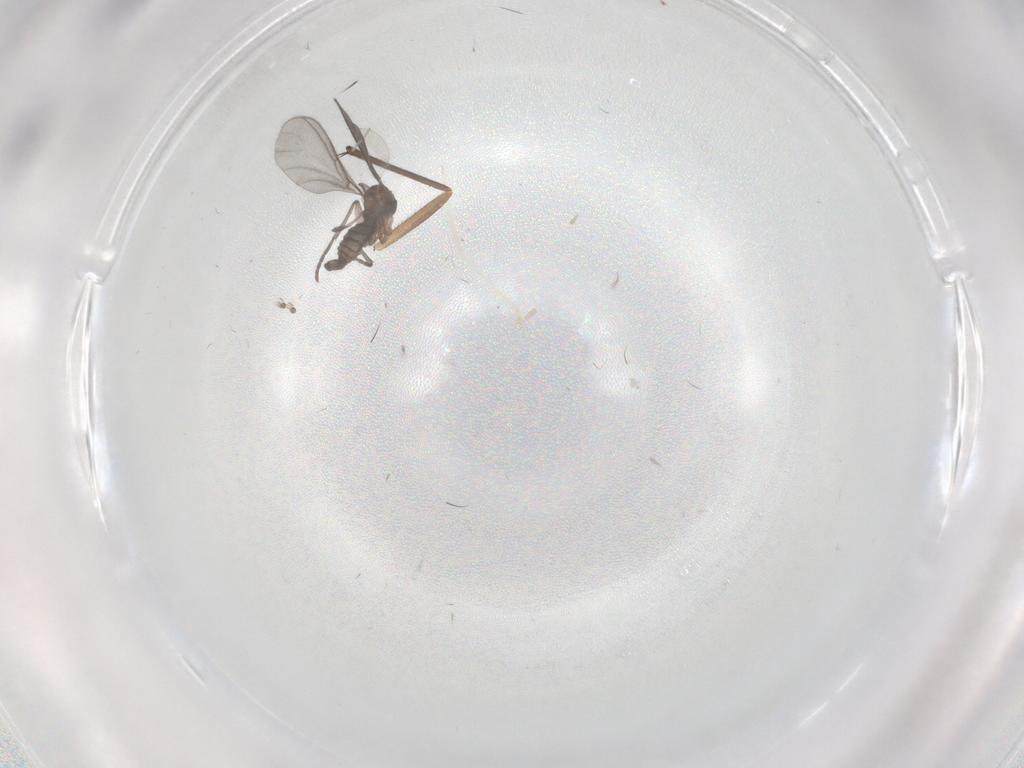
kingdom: Animalia
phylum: Arthropoda
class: Insecta
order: Diptera
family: Sciaridae
